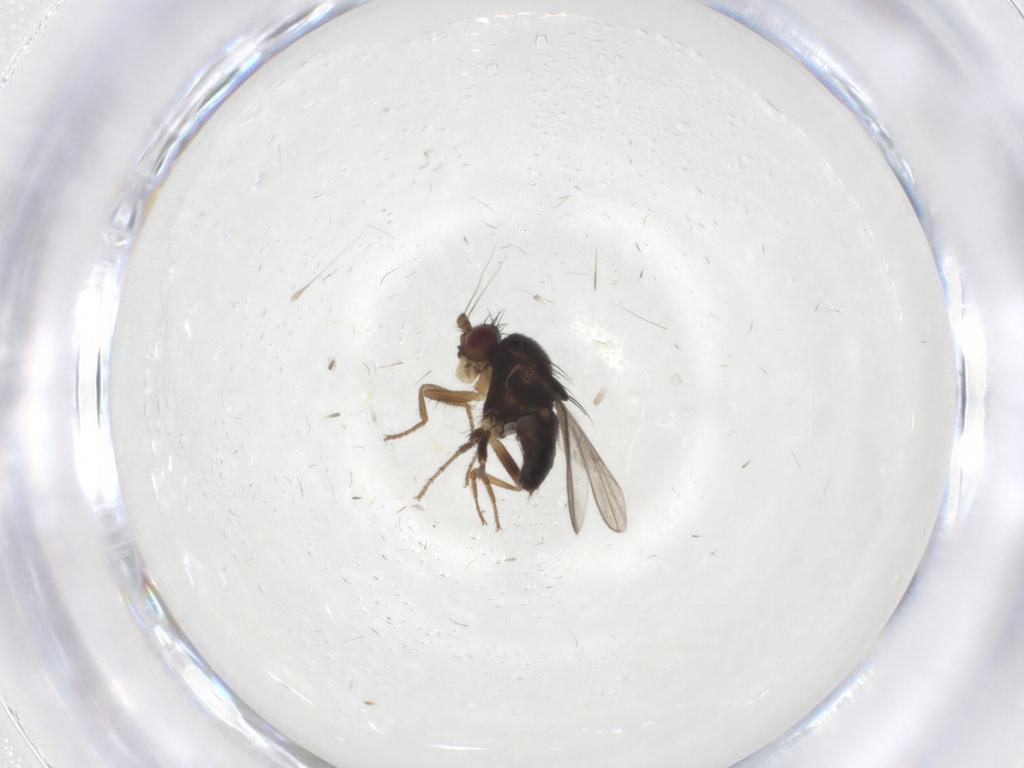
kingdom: Animalia
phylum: Arthropoda
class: Insecta
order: Diptera
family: Sphaeroceridae
